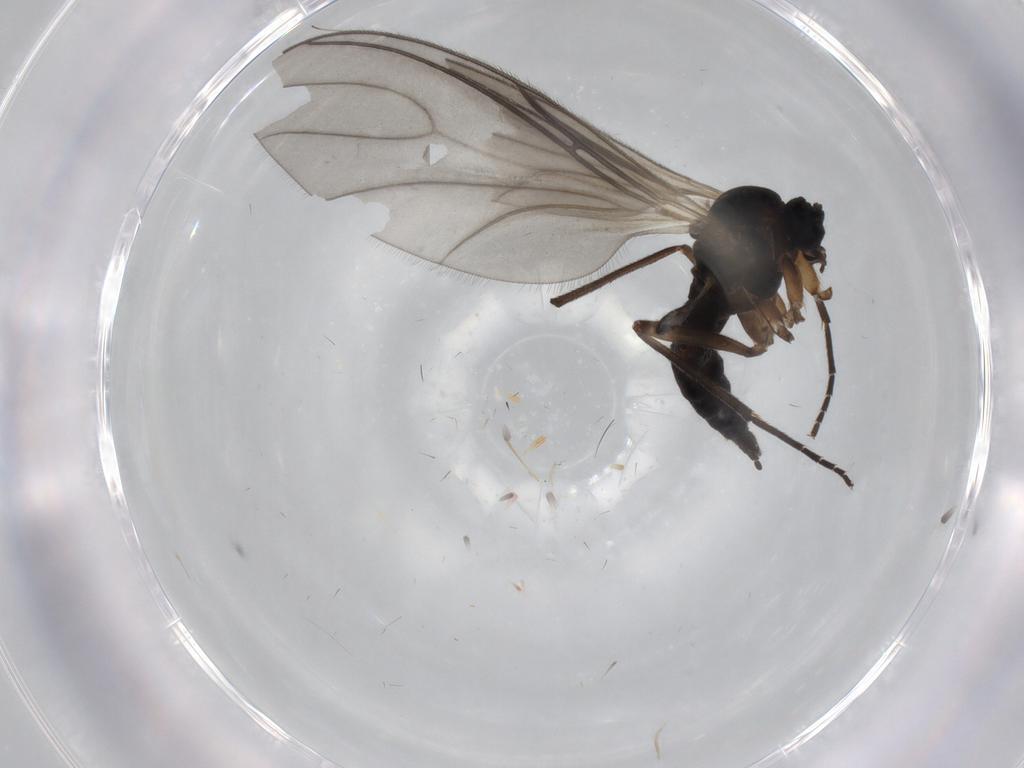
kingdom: Animalia
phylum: Arthropoda
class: Insecta
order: Diptera
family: Sciaridae
